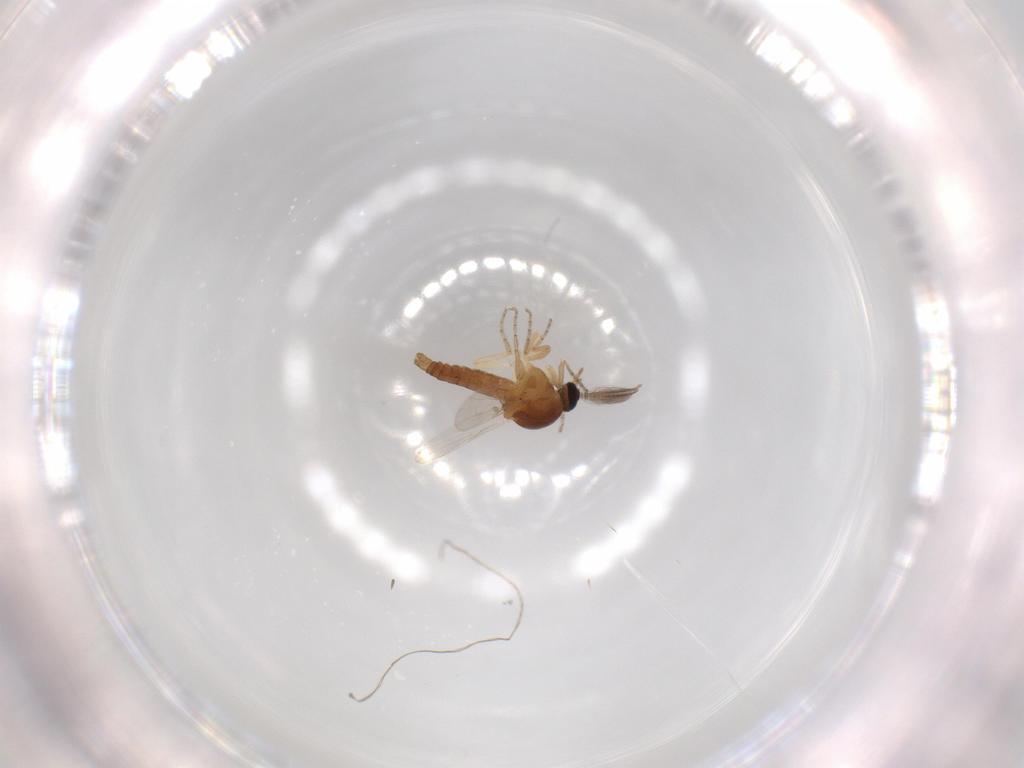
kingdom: Animalia
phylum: Arthropoda
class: Insecta
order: Diptera
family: Ceratopogonidae
